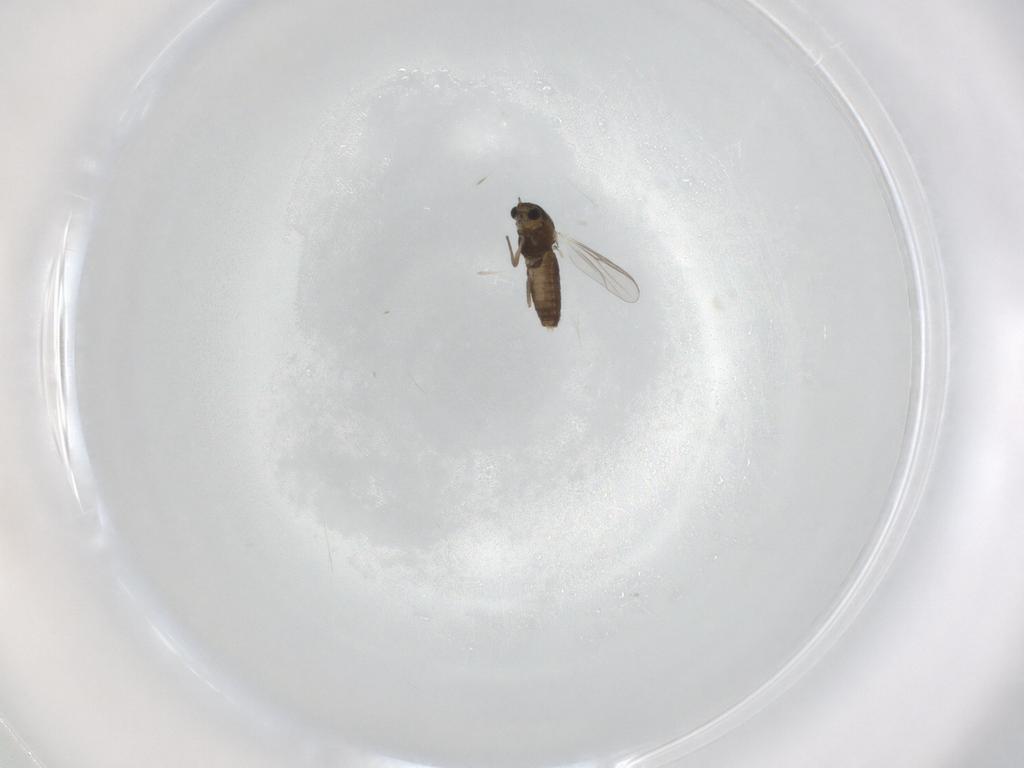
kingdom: Animalia
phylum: Arthropoda
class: Insecta
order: Diptera
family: Chironomidae
